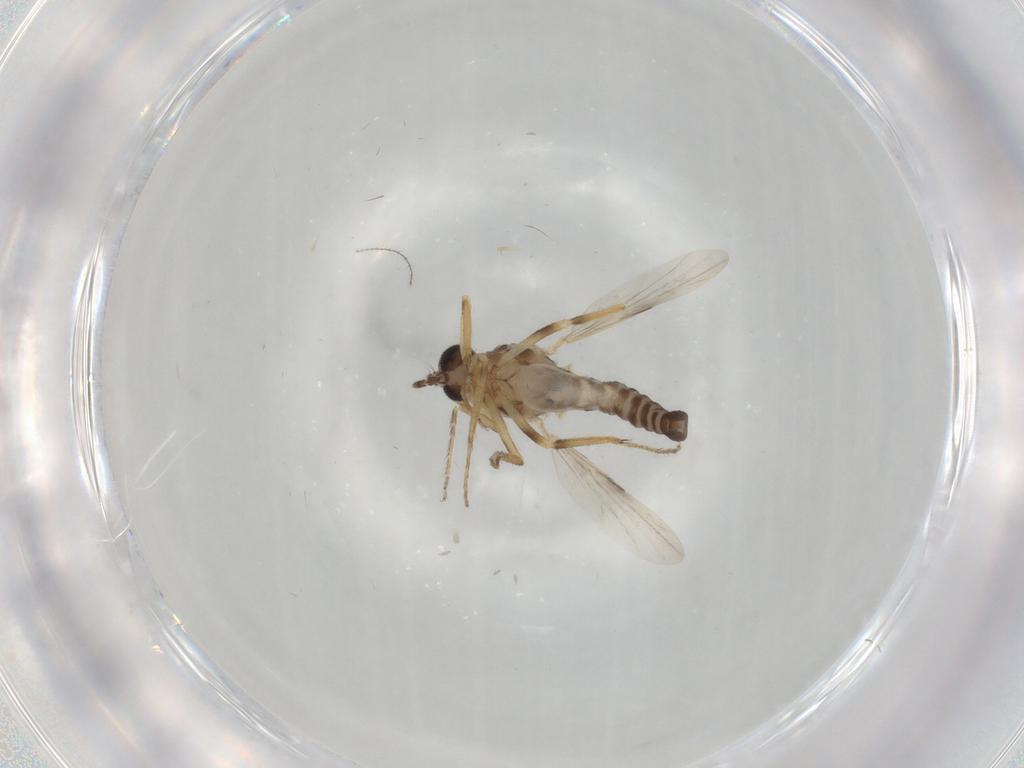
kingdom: Animalia
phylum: Arthropoda
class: Insecta
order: Diptera
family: Ceratopogonidae
